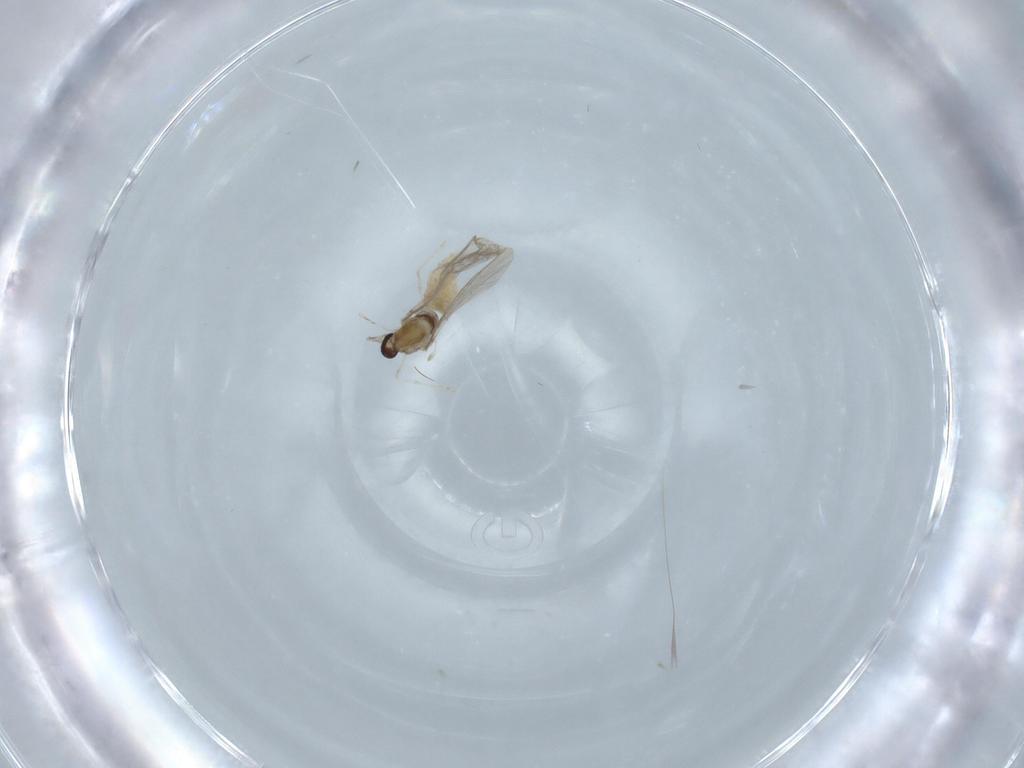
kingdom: Animalia
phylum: Arthropoda
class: Insecta
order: Diptera
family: Cecidomyiidae
